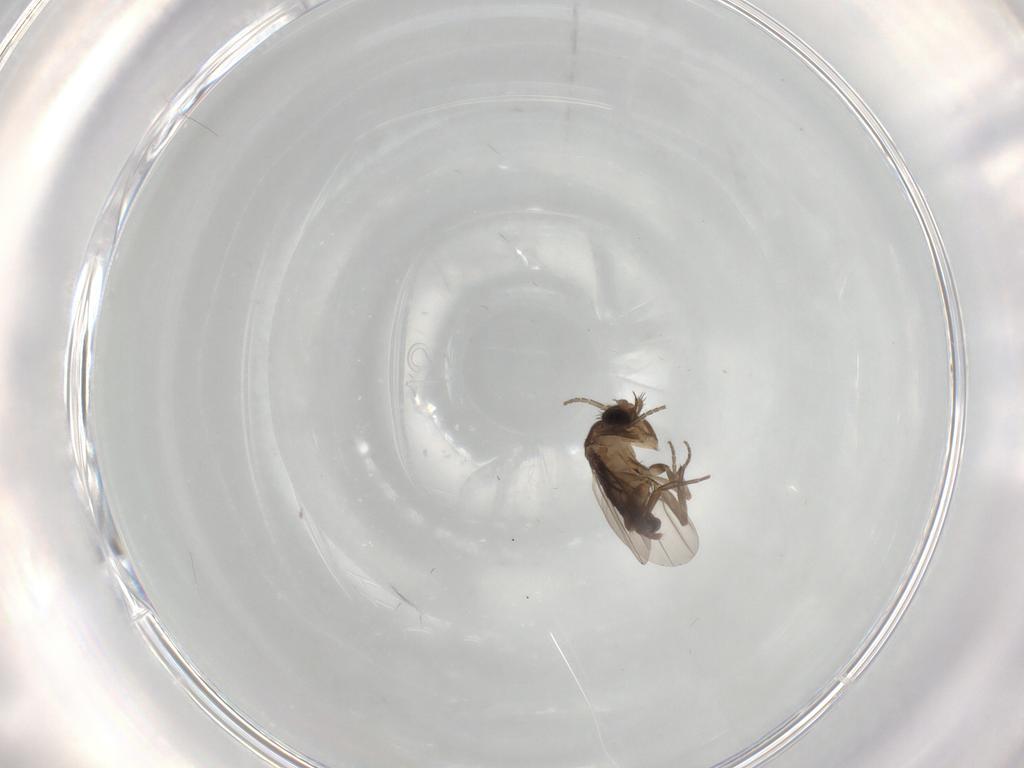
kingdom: Animalia
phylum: Arthropoda
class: Insecta
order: Diptera
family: Phoridae
